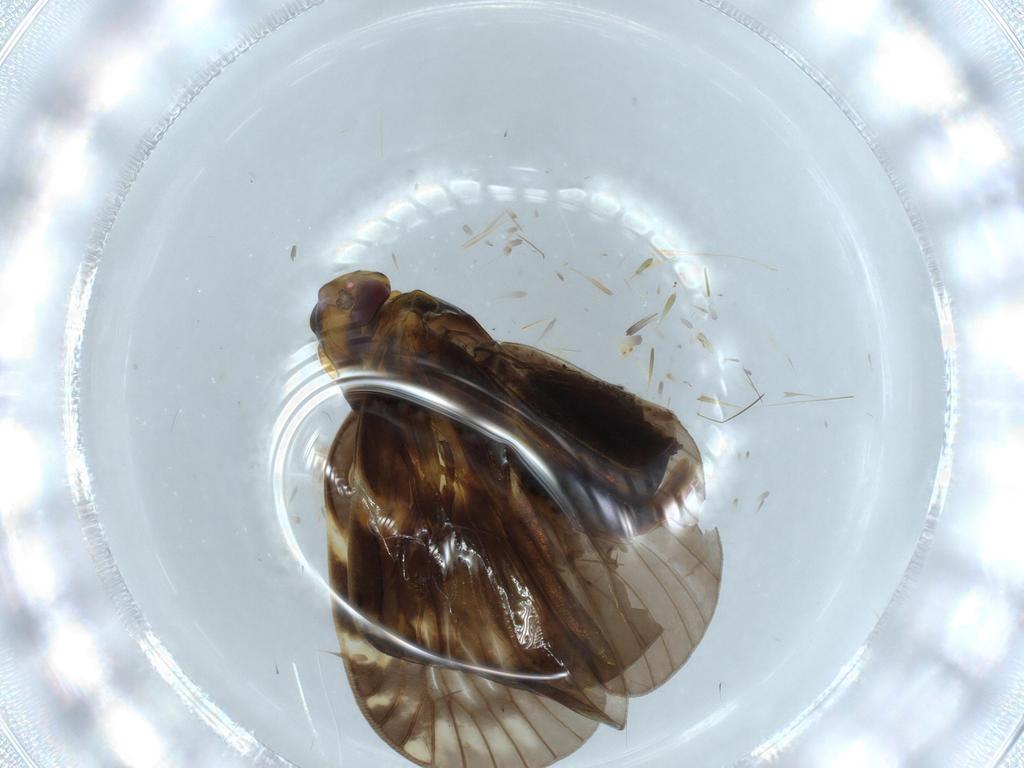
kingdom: Animalia
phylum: Arthropoda
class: Insecta
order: Hemiptera
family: Cixiidae
